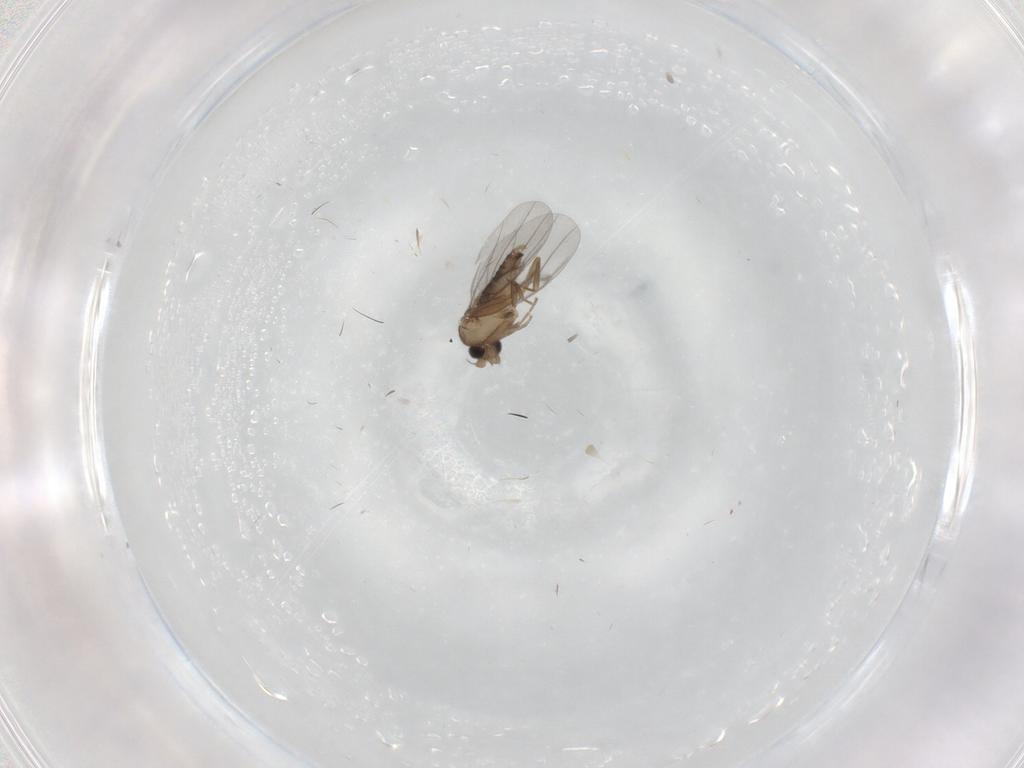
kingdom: Animalia
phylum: Arthropoda
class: Insecta
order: Diptera
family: Keroplatidae
